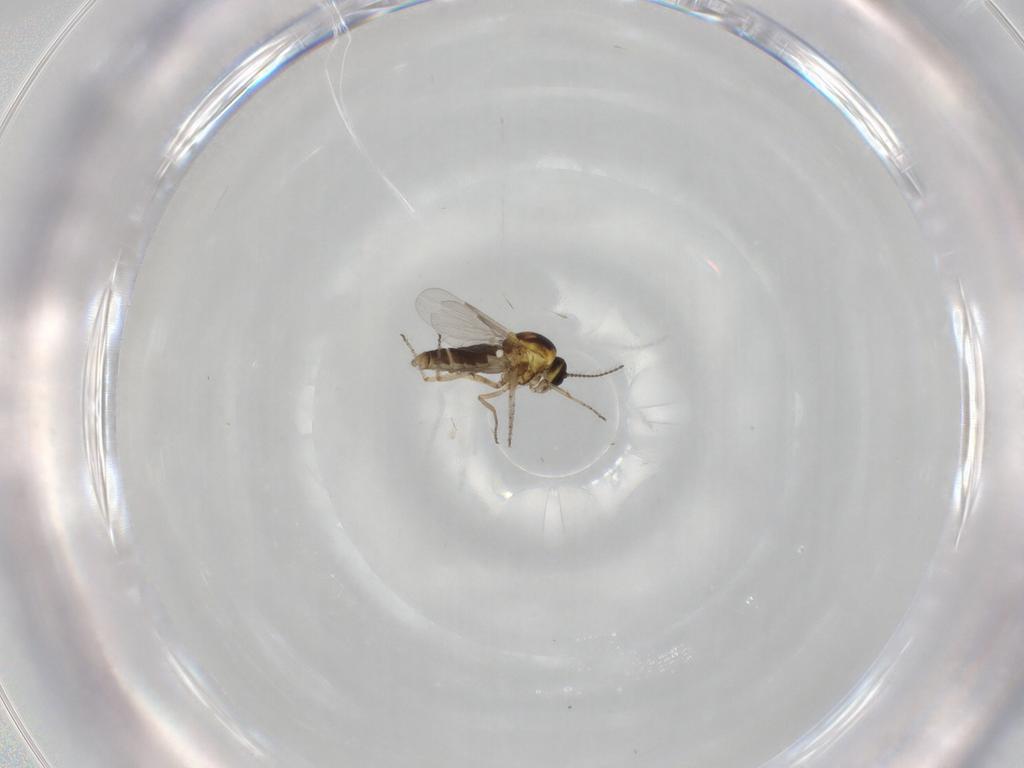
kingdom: Animalia
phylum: Arthropoda
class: Insecta
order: Diptera
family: Ceratopogonidae
